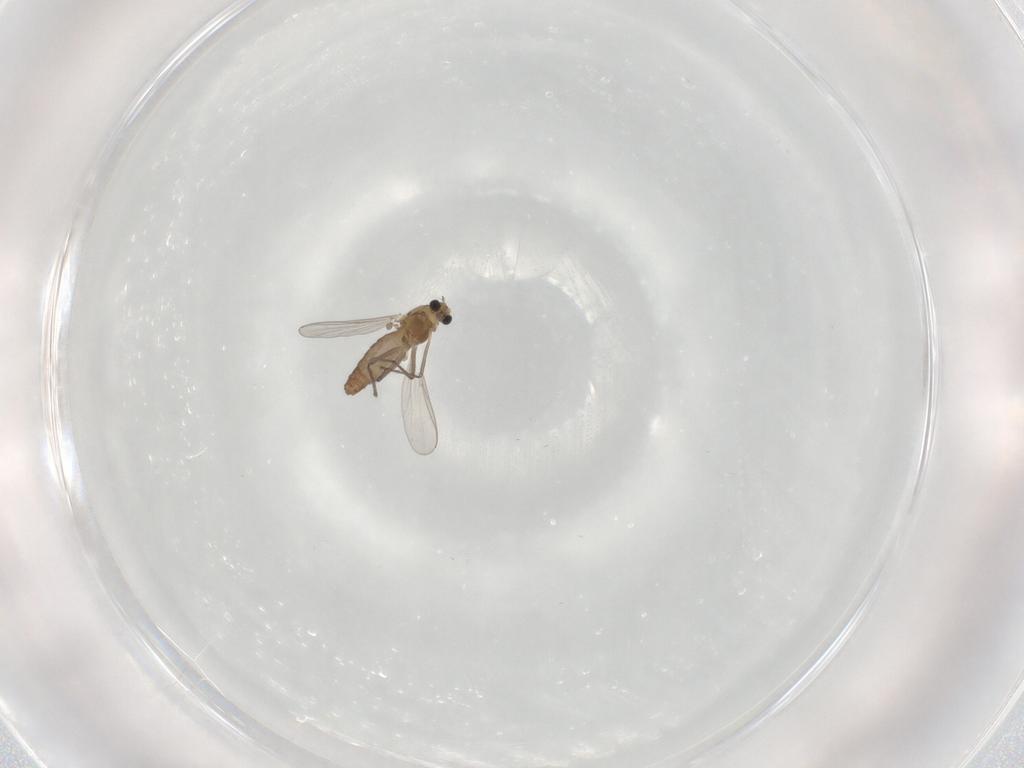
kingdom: Animalia
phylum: Arthropoda
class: Insecta
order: Diptera
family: Chironomidae
